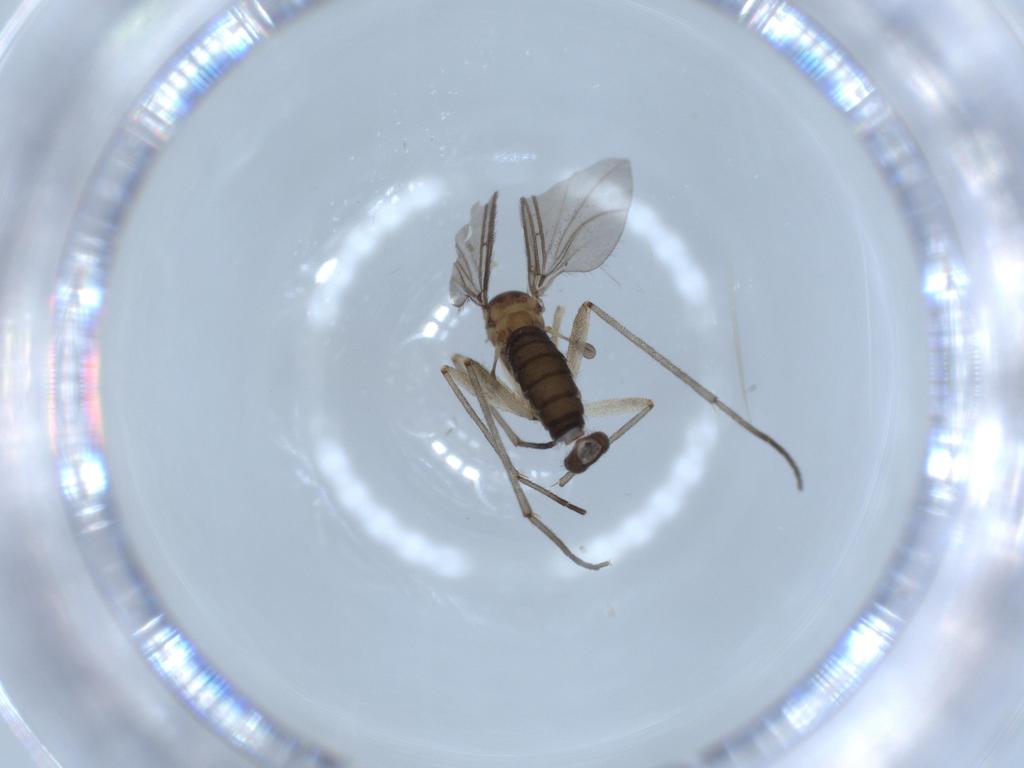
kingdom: Animalia
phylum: Arthropoda
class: Insecta
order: Diptera
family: Sciaridae
